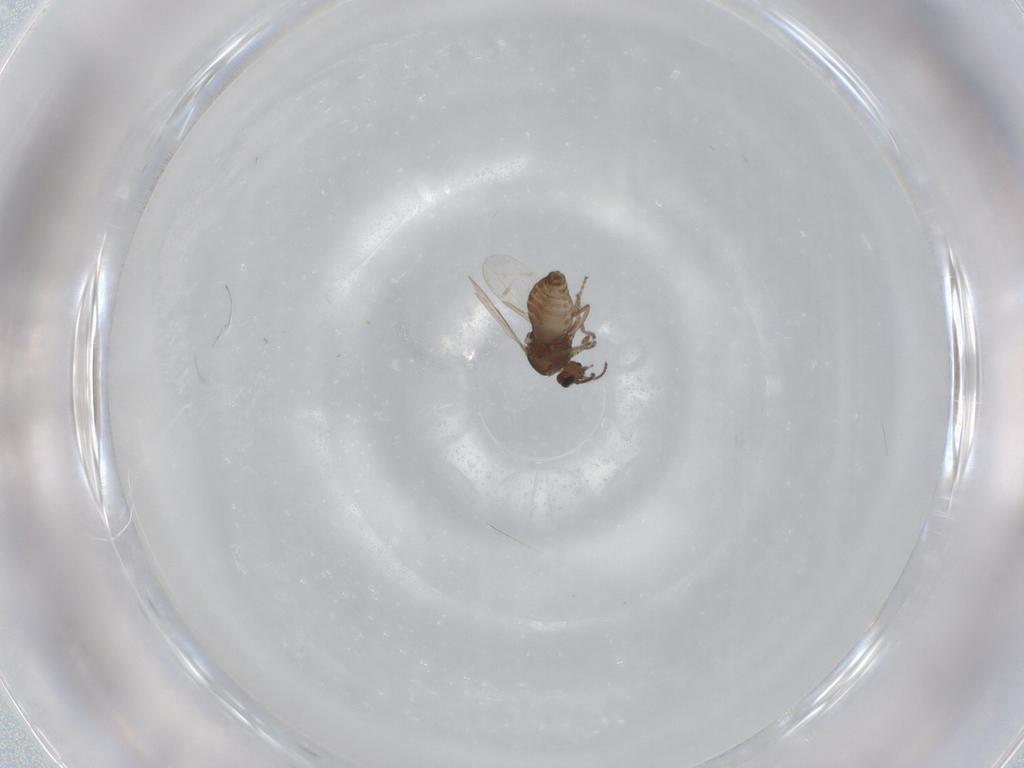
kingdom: Animalia
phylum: Arthropoda
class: Insecta
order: Diptera
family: Ceratopogonidae
